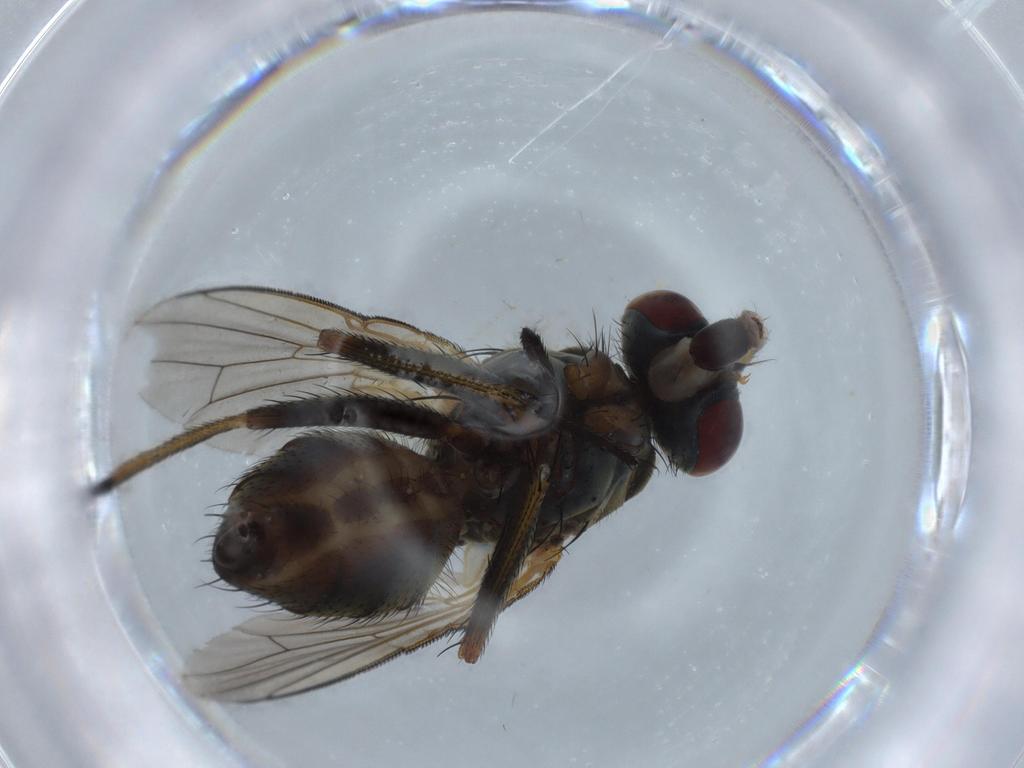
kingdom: Animalia
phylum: Arthropoda
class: Insecta
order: Diptera
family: Muscidae
